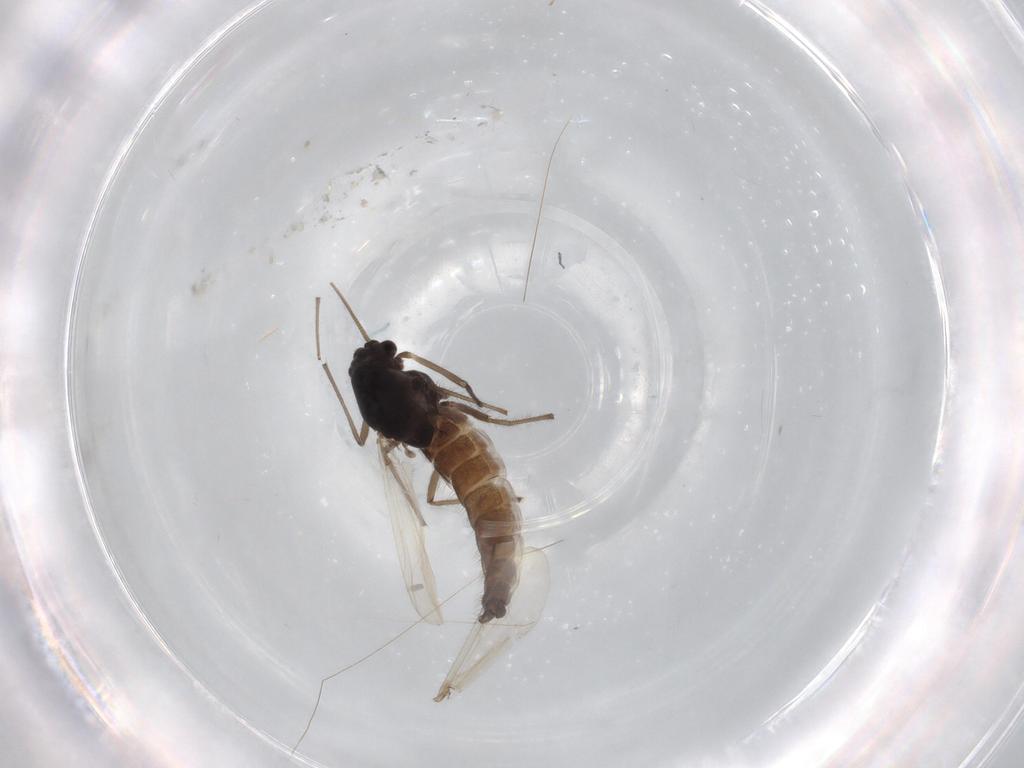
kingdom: Animalia
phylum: Arthropoda
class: Insecta
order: Diptera
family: Chironomidae
